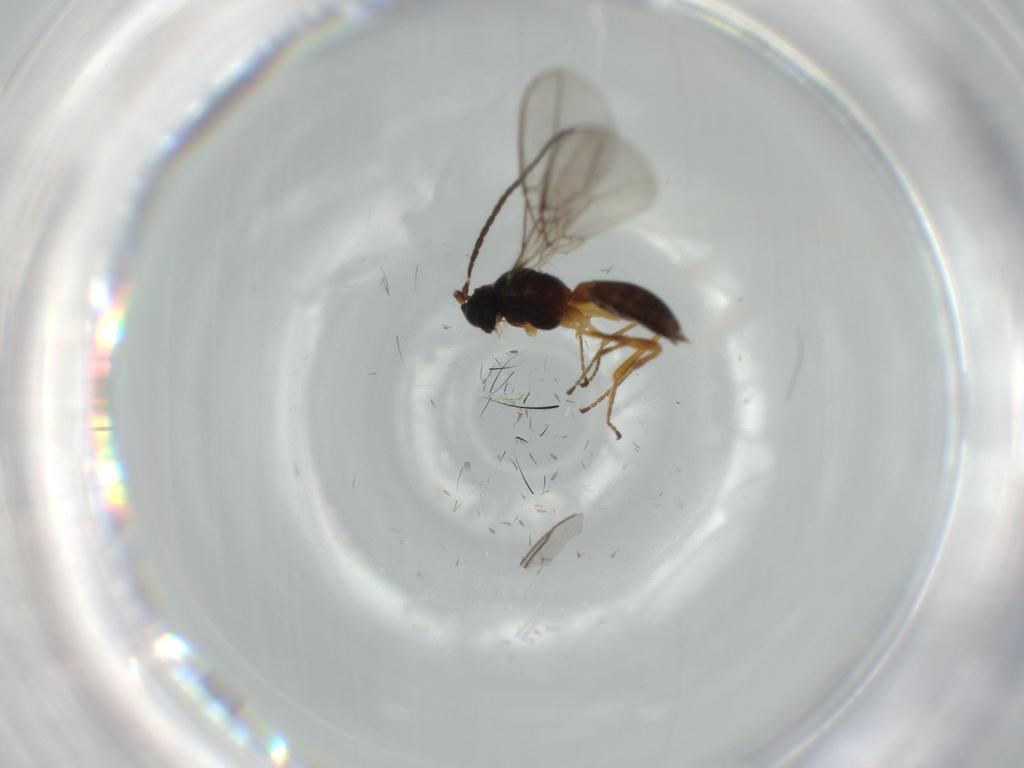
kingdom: Animalia
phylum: Arthropoda
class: Insecta
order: Hymenoptera
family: Braconidae
